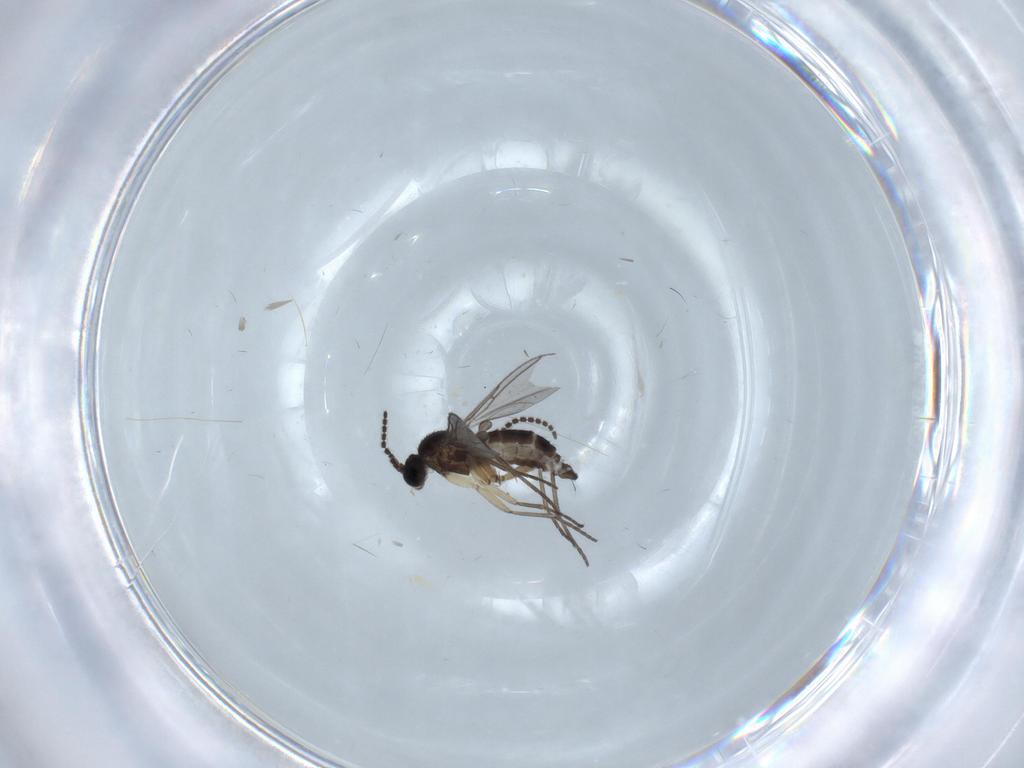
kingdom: Animalia
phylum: Arthropoda
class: Insecta
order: Diptera
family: Sciaridae
